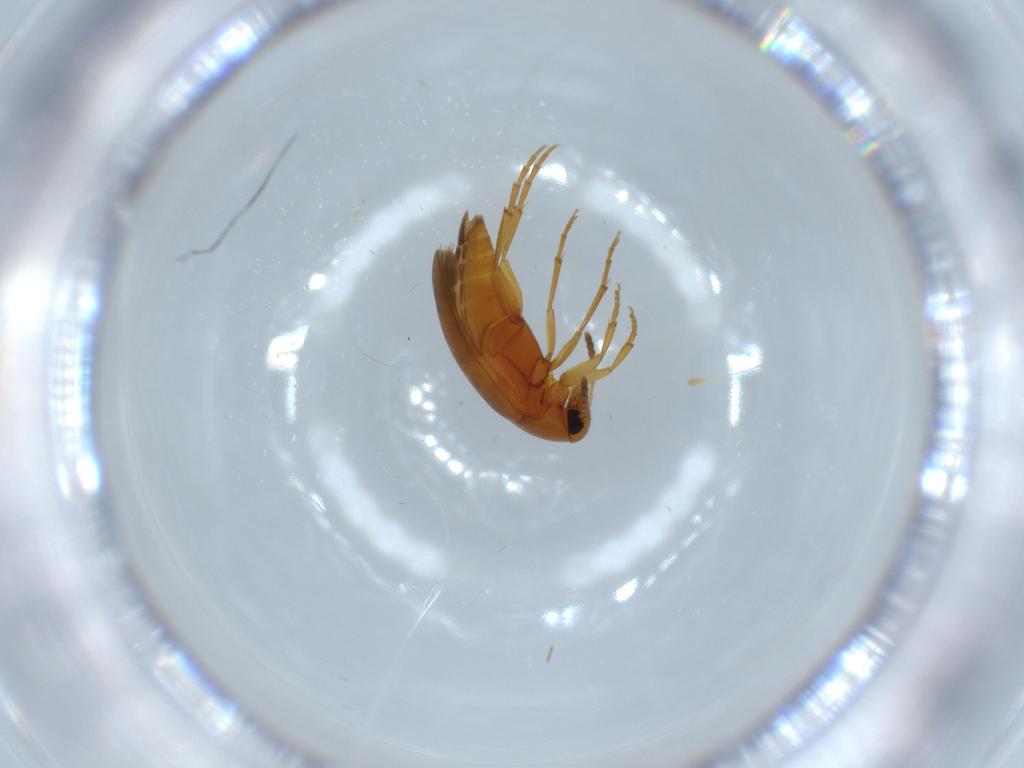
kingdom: Animalia
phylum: Arthropoda
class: Insecta
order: Coleoptera
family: Scraptiidae
